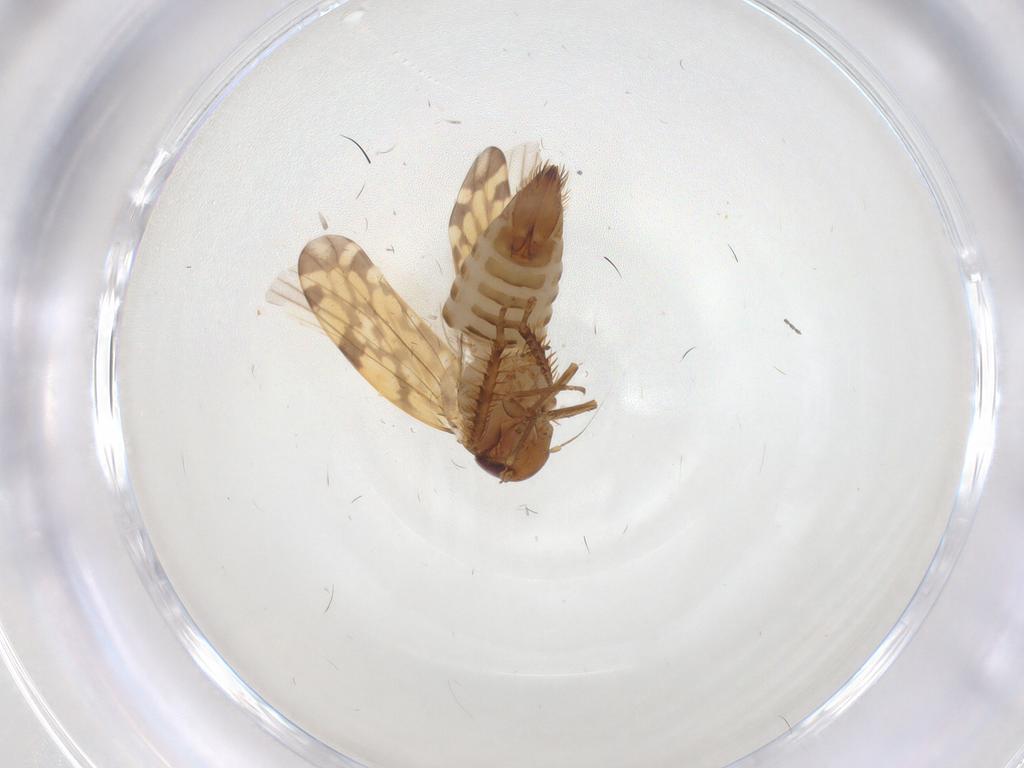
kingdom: Animalia
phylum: Arthropoda
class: Insecta
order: Hemiptera
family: Cicadellidae
